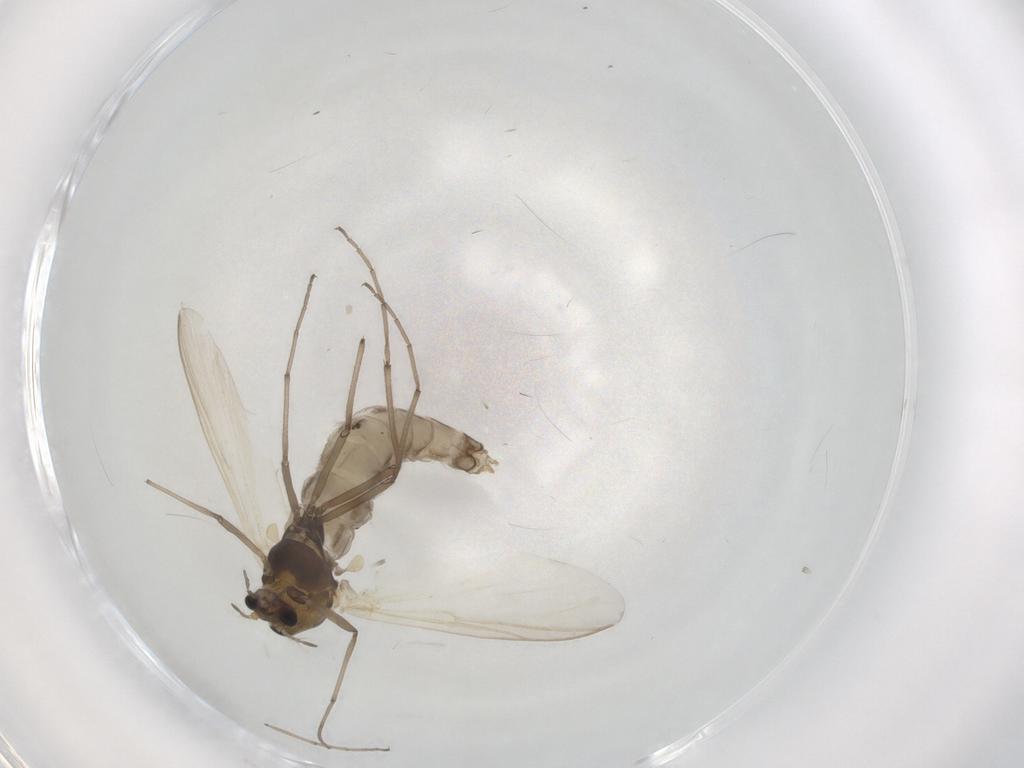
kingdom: Animalia
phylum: Arthropoda
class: Insecta
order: Diptera
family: Chironomidae
